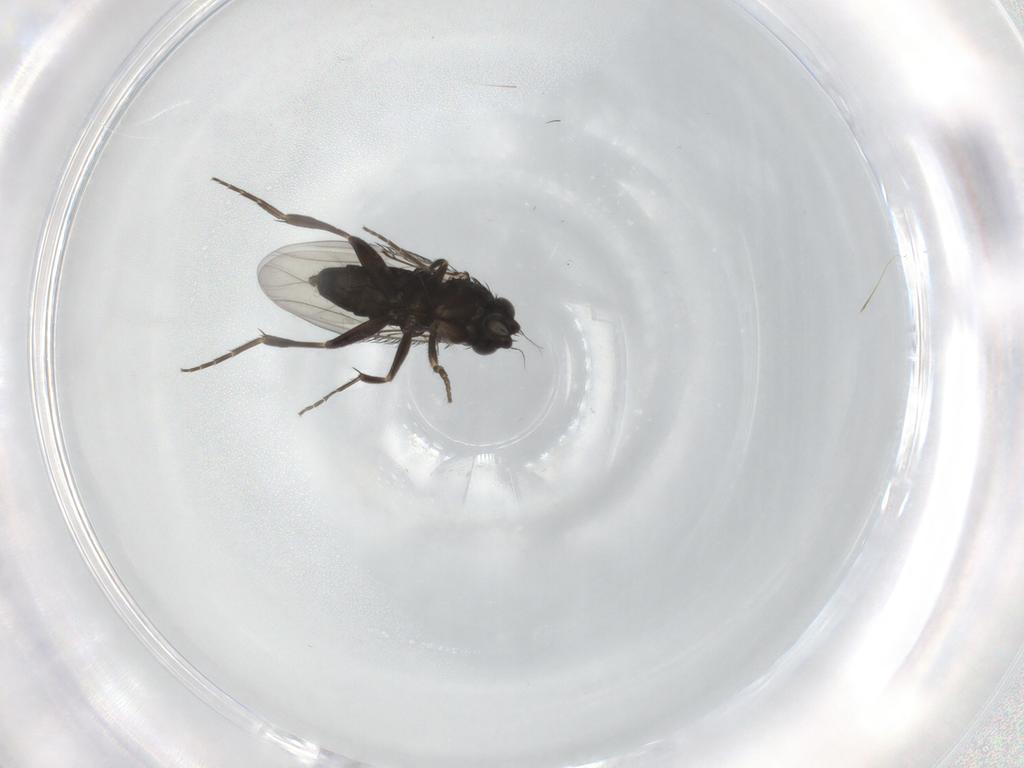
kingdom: Animalia
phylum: Arthropoda
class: Insecta
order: Diptera
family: Phoridae
